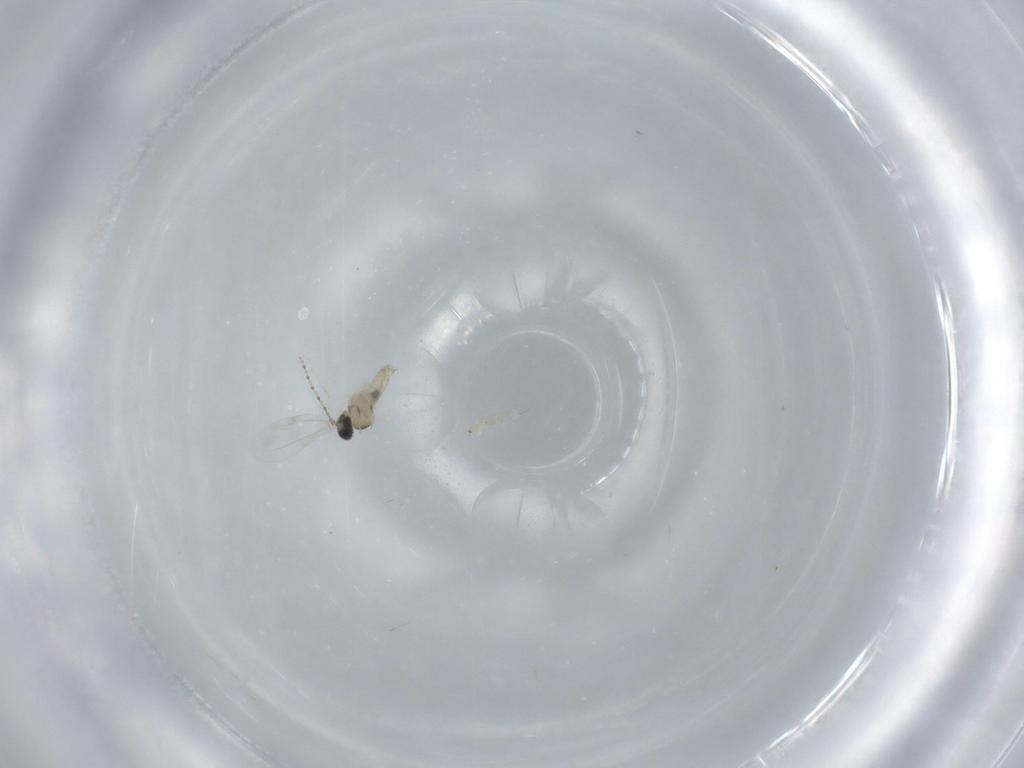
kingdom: Animalia
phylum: Arthropoda
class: Insecta
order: Diptera
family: Cecidomyiidae
